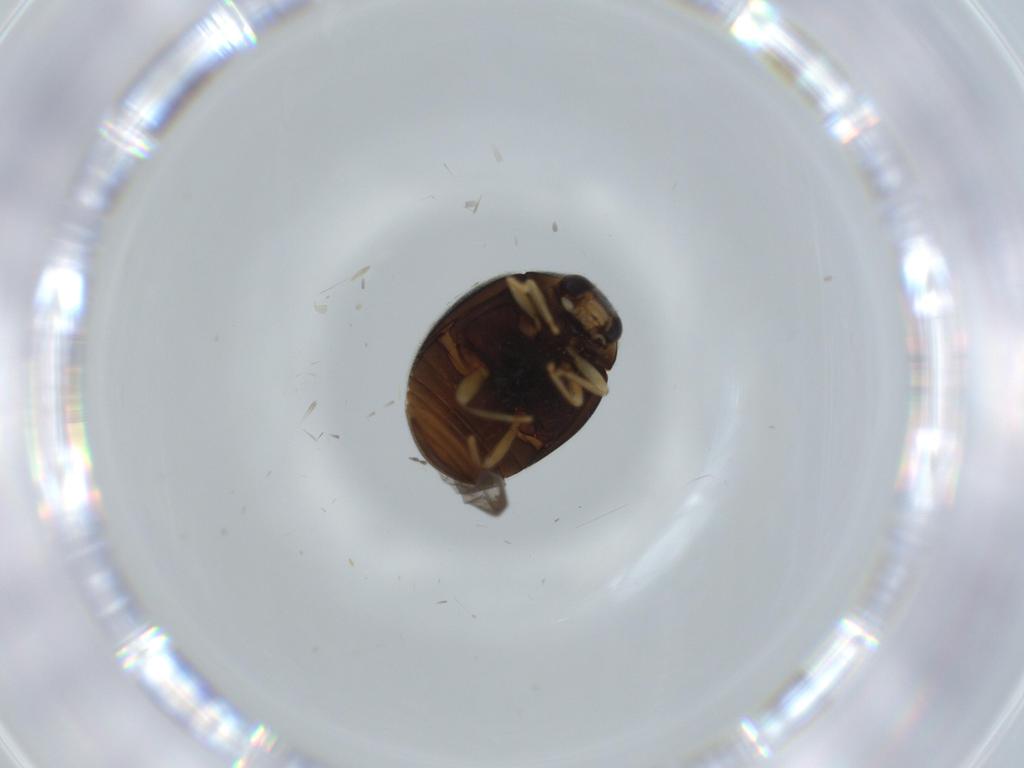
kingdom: Animalia
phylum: Arthropoda
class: Insecta
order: Coleoptera
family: Coccinellidae
